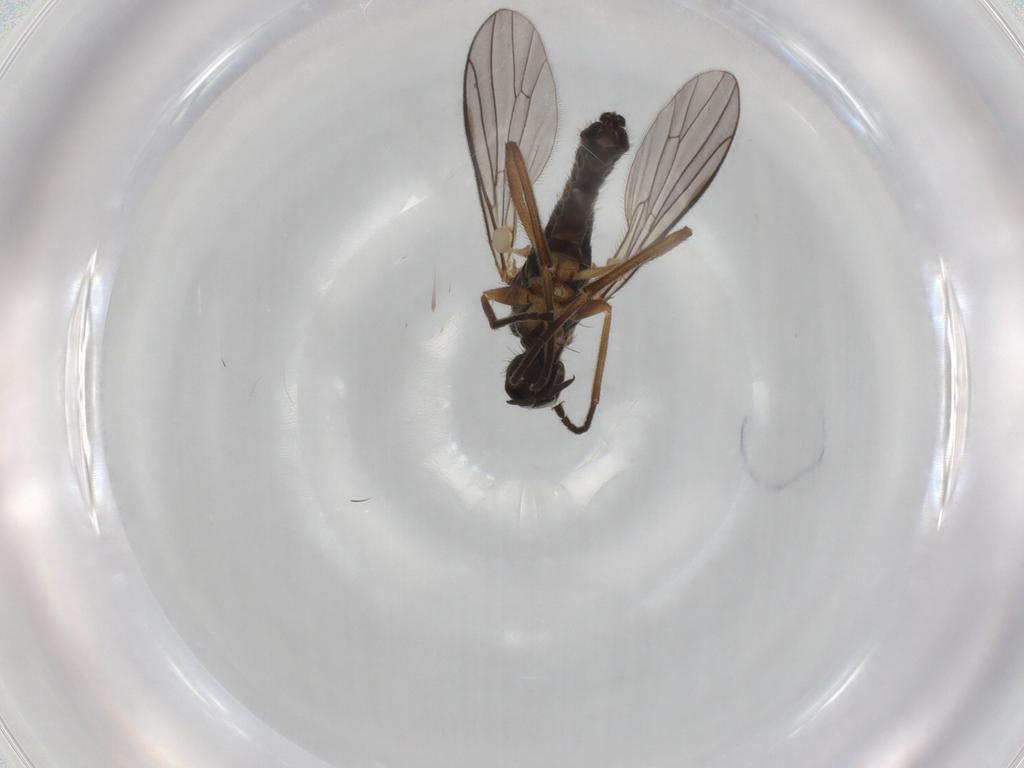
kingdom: Animalia
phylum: Arthropoda
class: Insecta
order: Diptera
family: Empididae
